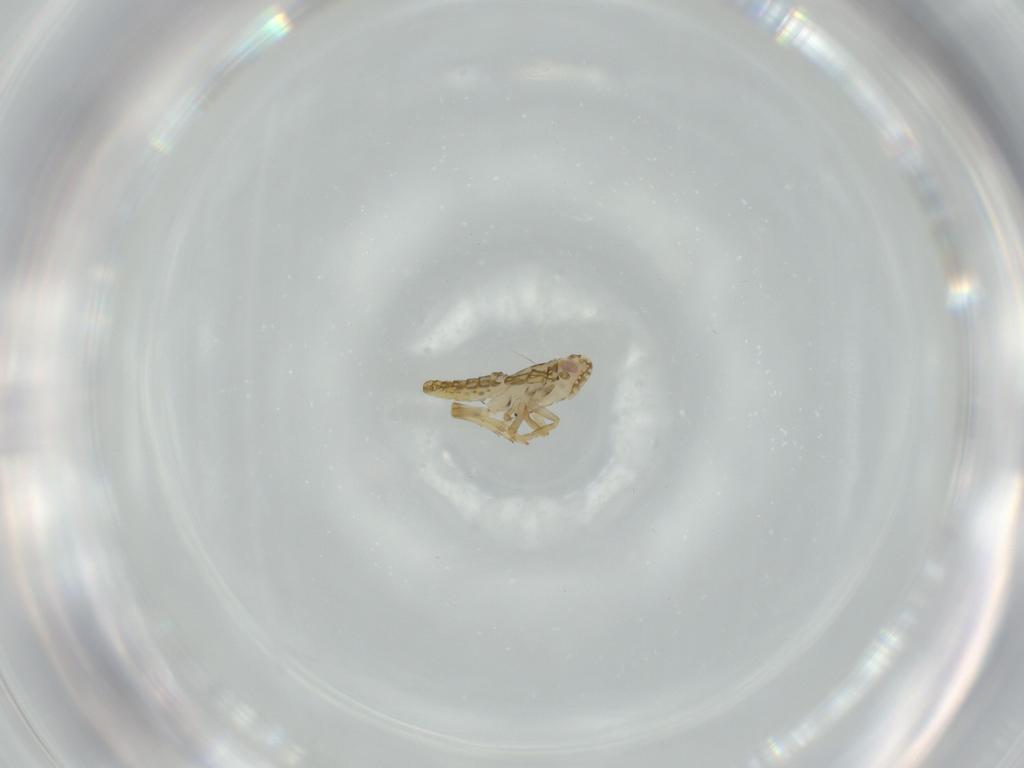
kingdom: Animalia
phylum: Arthropoda
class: Insecta
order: Hemiptera
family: Delphacidae
